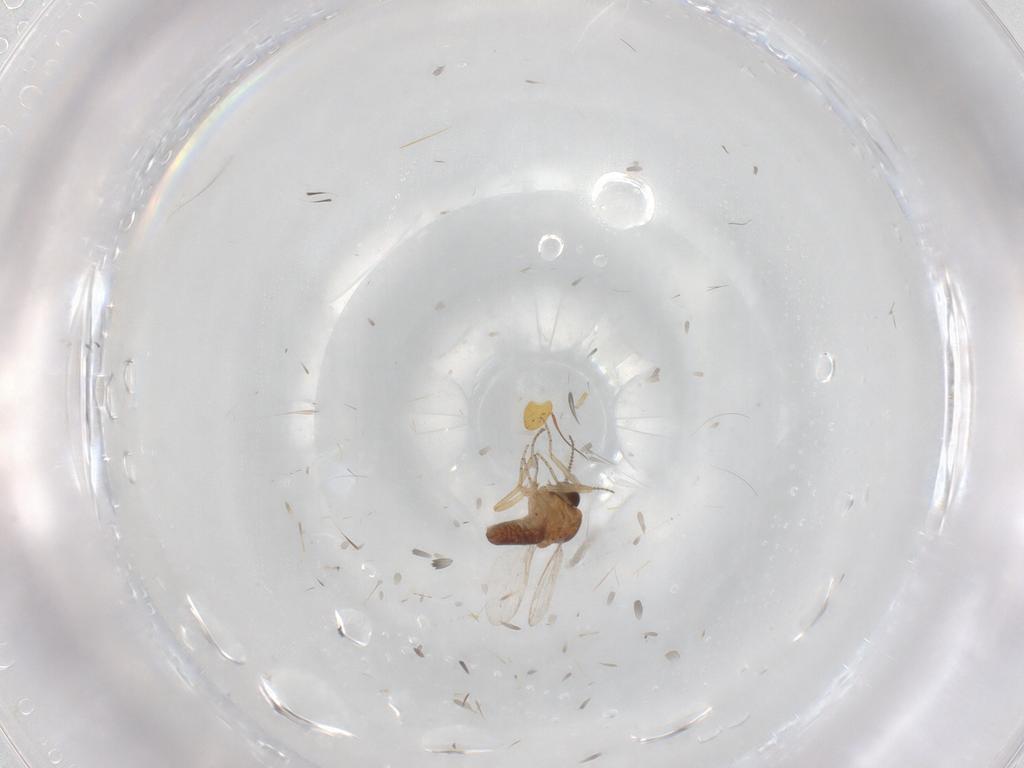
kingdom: Animalia
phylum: Arthropoda
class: Insecta
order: Diptera
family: Ceratopogonidae
